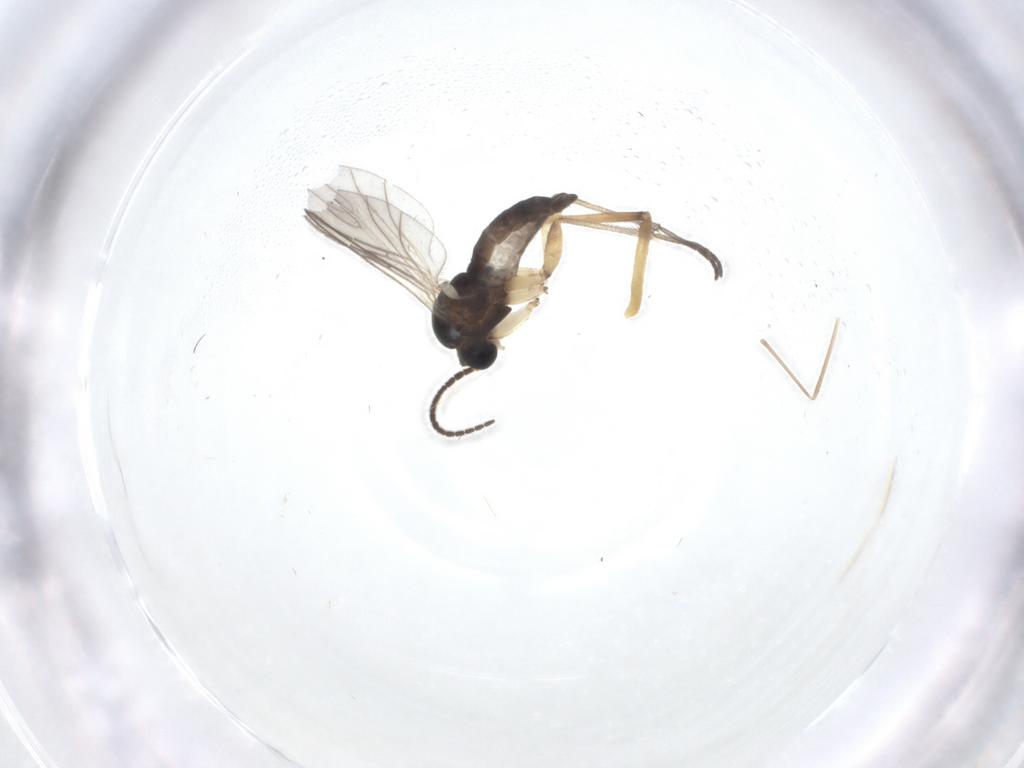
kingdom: Animalia
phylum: Arthropoda
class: Insecta
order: Diptera
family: Sciaridae
